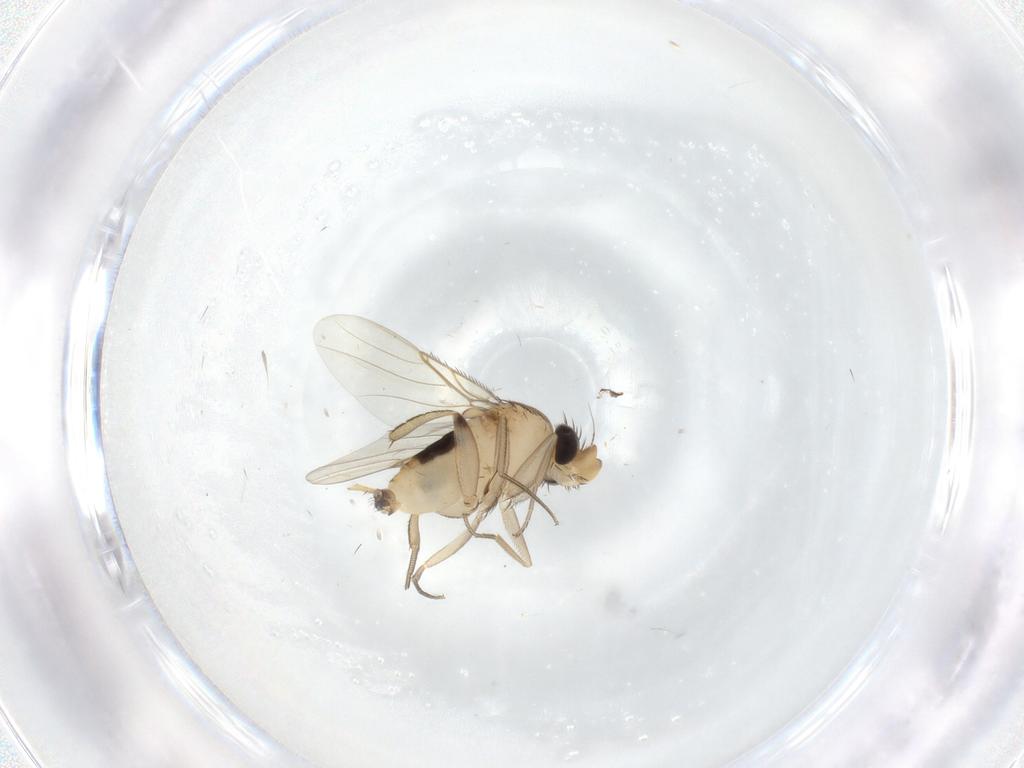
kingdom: Animalia
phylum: Arthropoda
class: Insecta
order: Diptera
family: Phoridae
